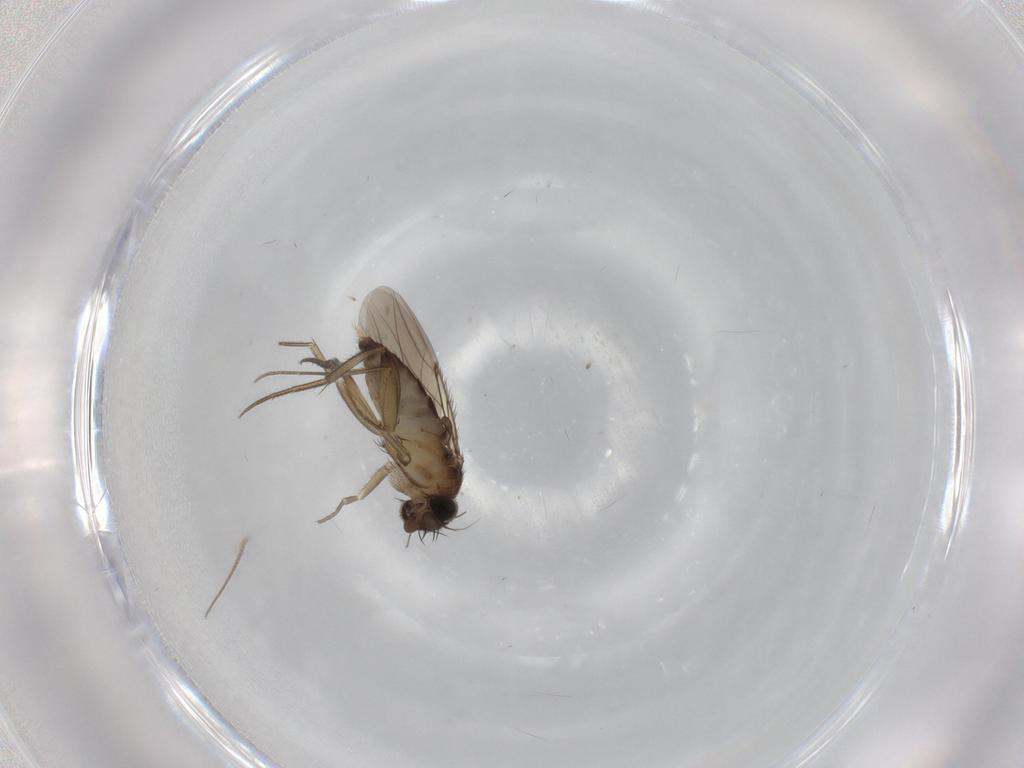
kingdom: Animalia
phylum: Arthropoda
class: Insecta
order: Diptera
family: Phoridae
